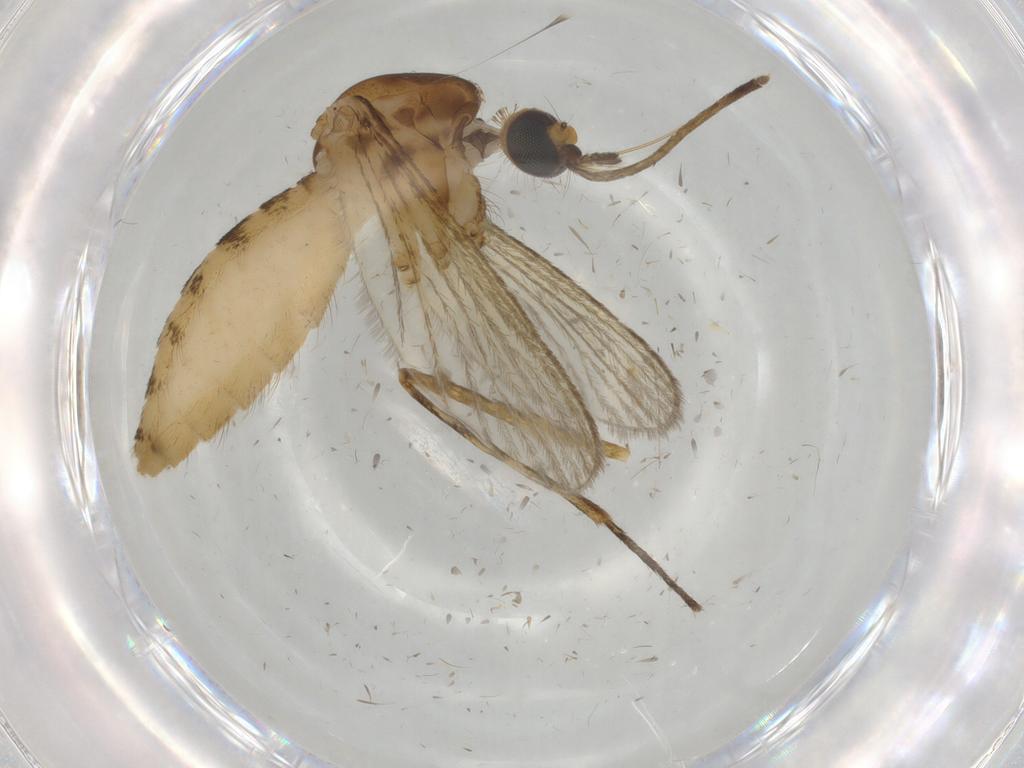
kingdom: Animalia
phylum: Arthropoda
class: Insecta
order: Diptera
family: Culicidae
